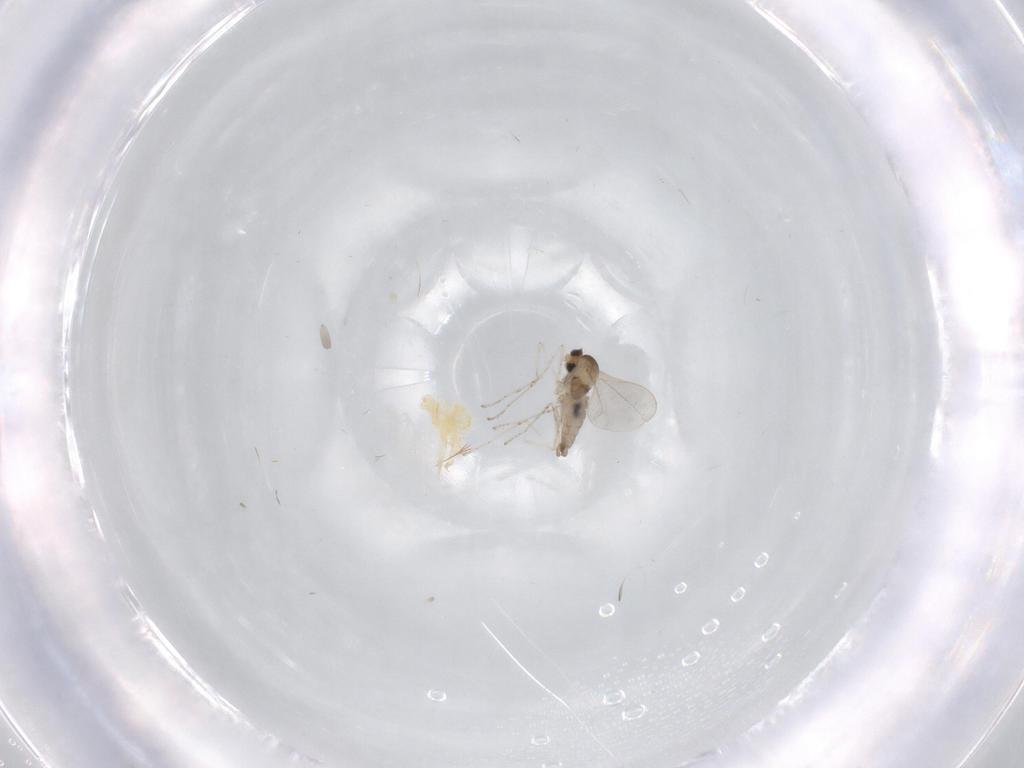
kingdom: Animalia
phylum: Arthropoda
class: Insecta
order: Diptera
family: Cecidomyiidae
